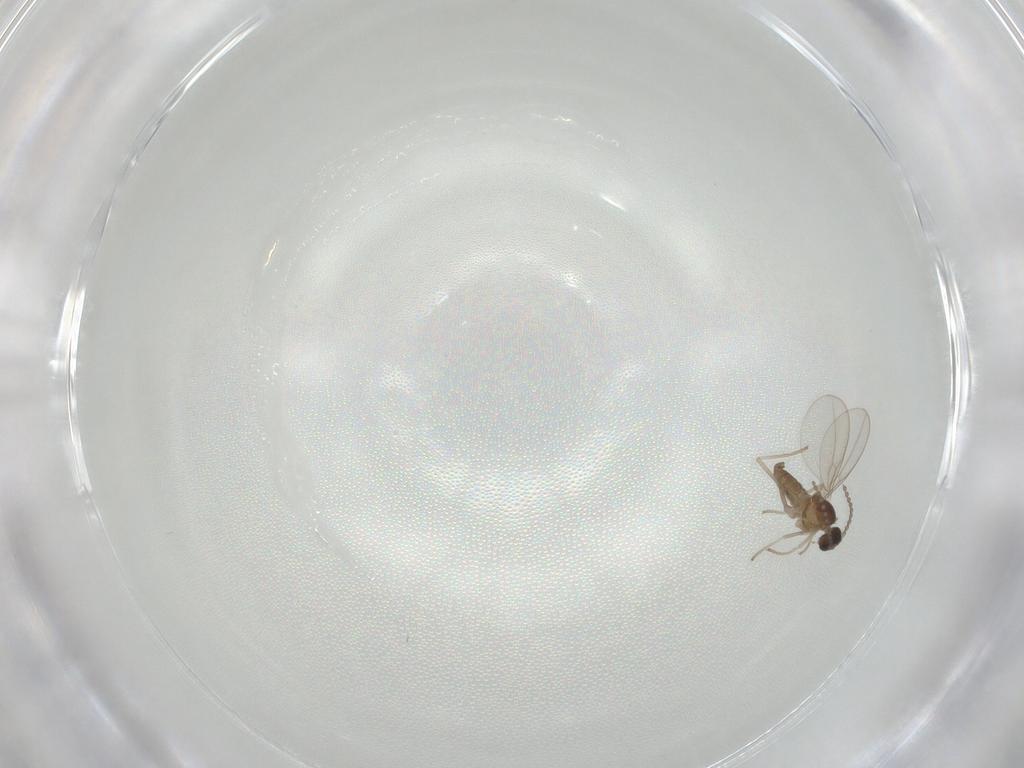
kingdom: Animalia
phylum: Arthropoda
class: Insecta
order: Diptera
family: Cecidomyiidae
